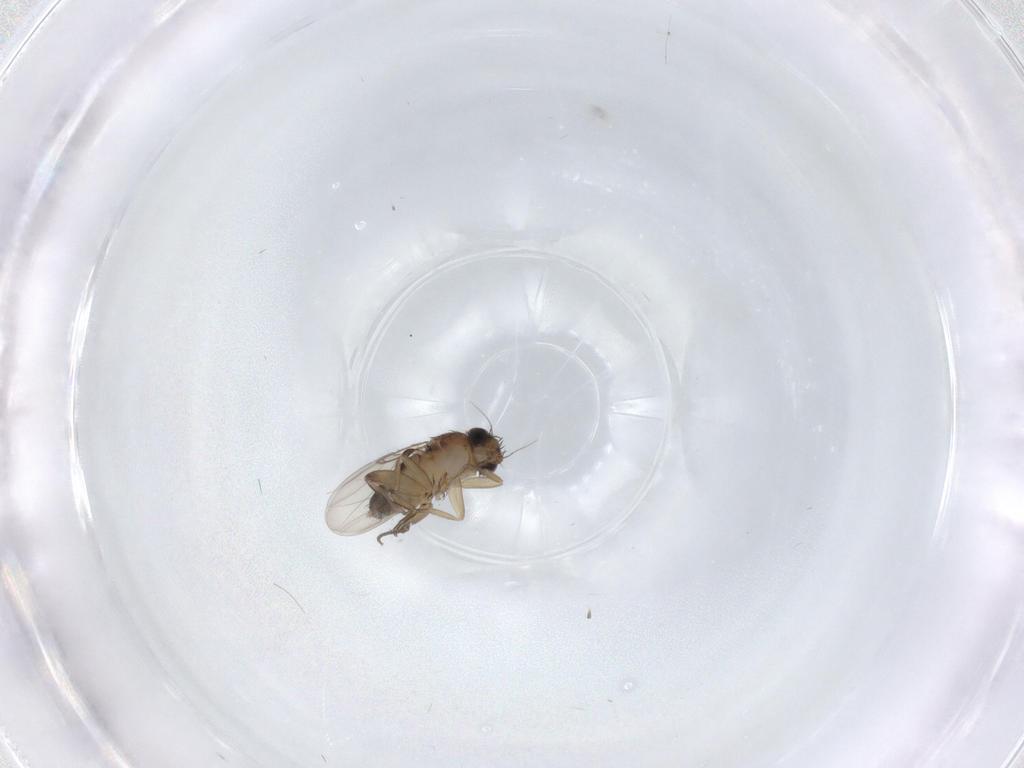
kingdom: Animalia
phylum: Arthropoda
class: Insecta
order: Diptera
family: Phoridae
